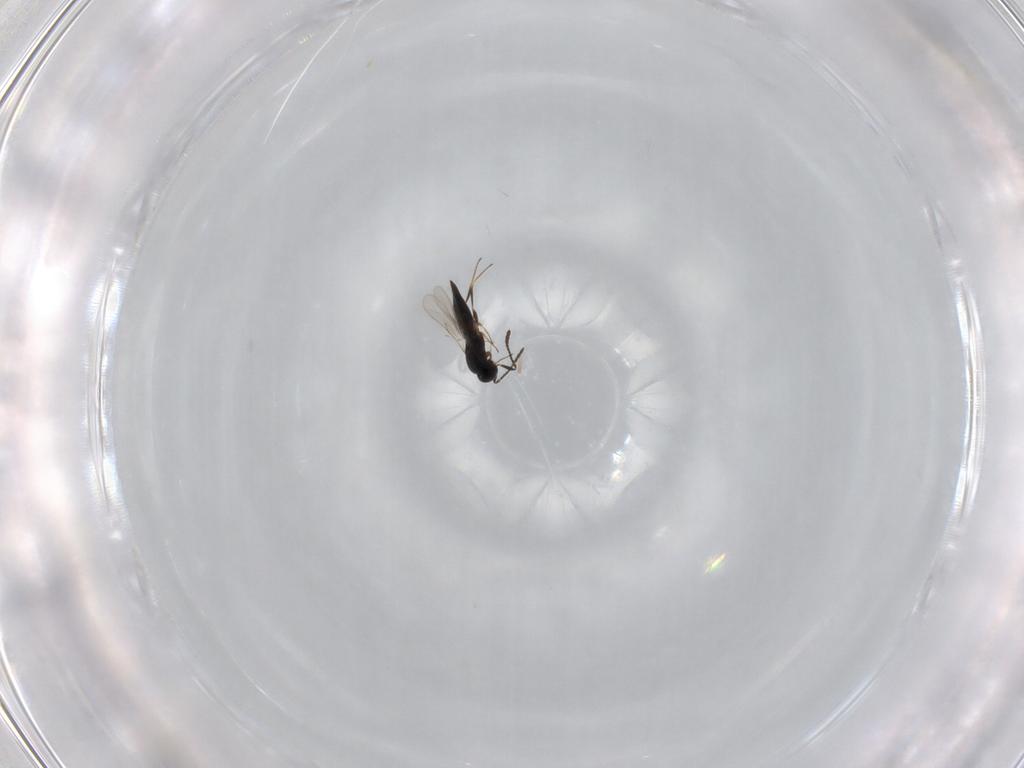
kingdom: Animalia
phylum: Arthropoda
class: Insecta
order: Hymenoptera
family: Scelionidae
